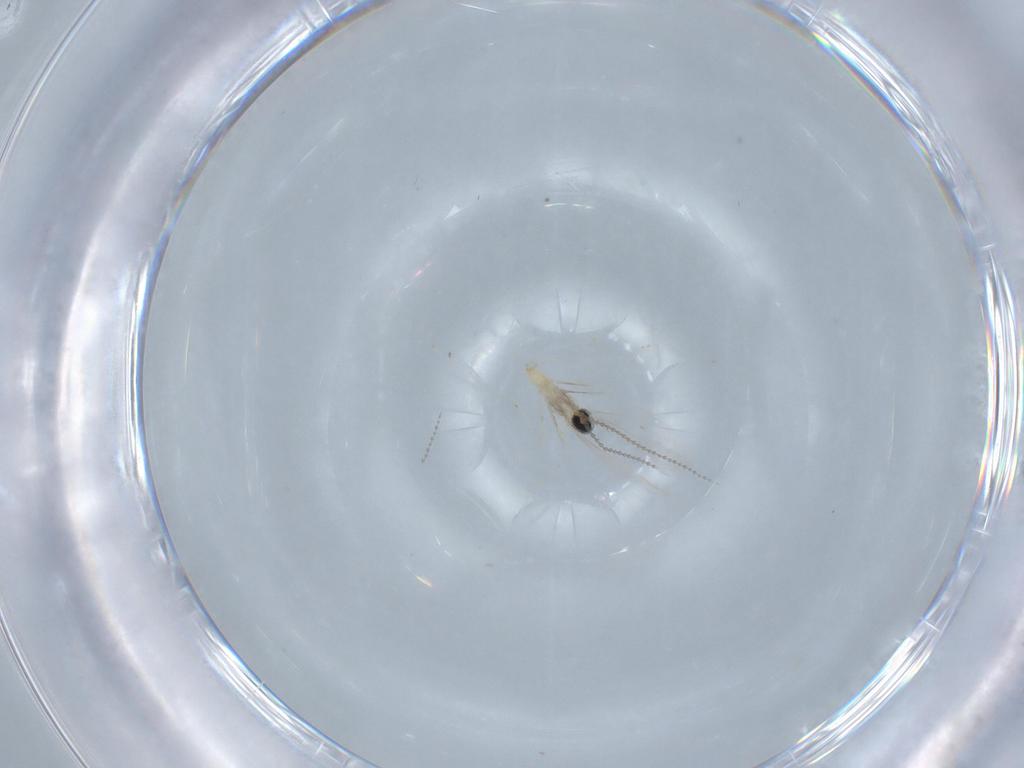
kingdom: Animalia
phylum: Arthropoda
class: Insecta
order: Diptera
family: Cecidomyiidae
